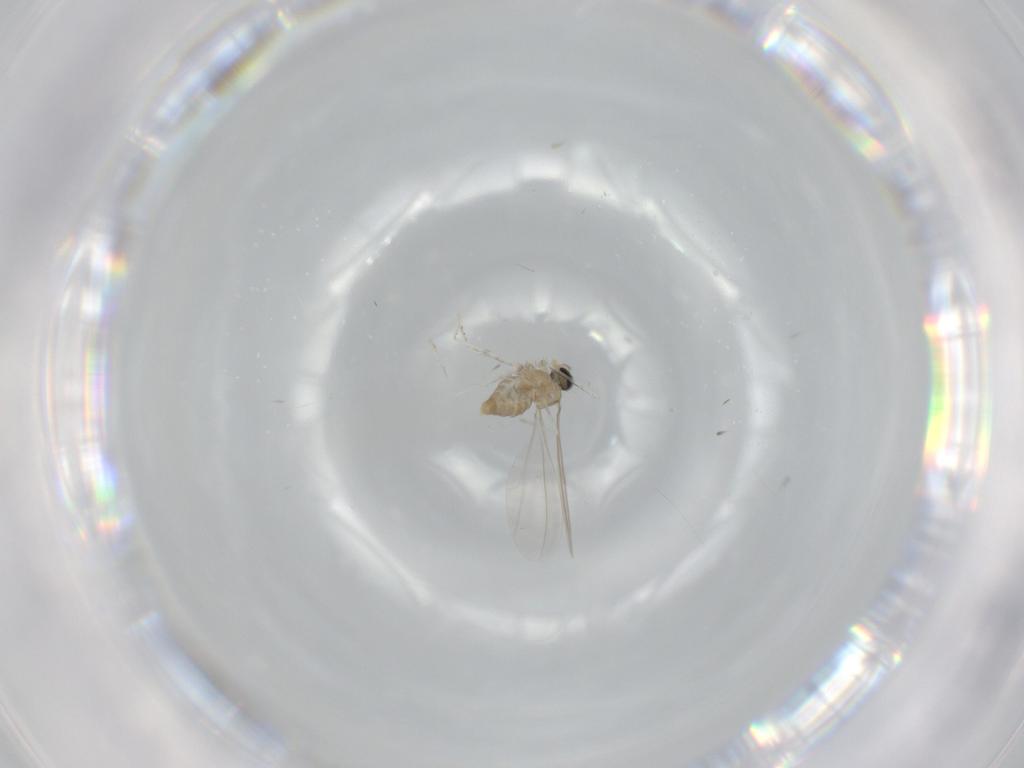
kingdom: Animalia
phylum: Arthropoda
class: Insecta
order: Diptera
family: Cecidomyiidae
